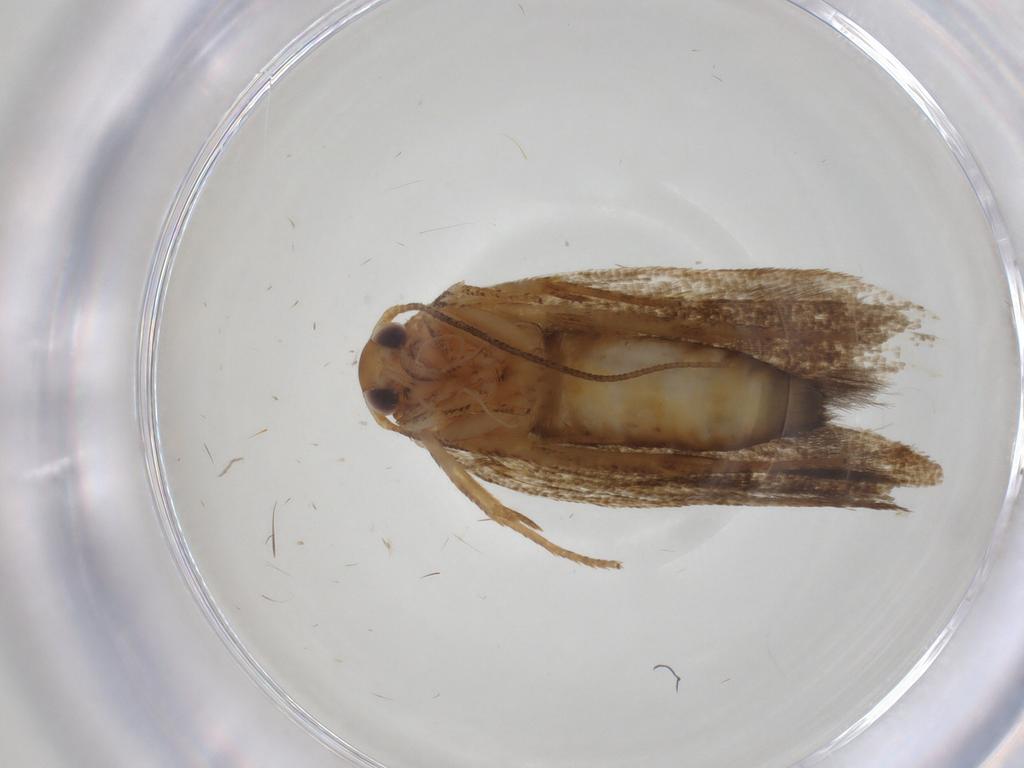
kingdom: Animalia
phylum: Arthropoda
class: Insecta
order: Lepidoptera
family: Blastobasidae
